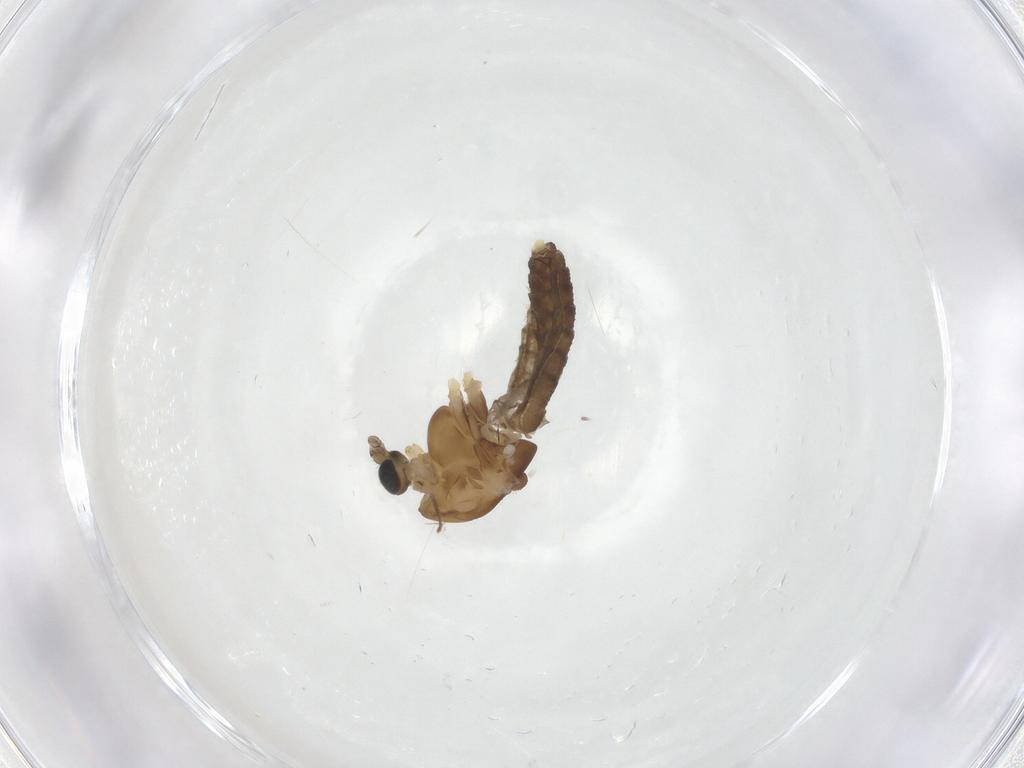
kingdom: Animalia
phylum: Arthropoda
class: Insecta
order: Diptera
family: Chironomidae
